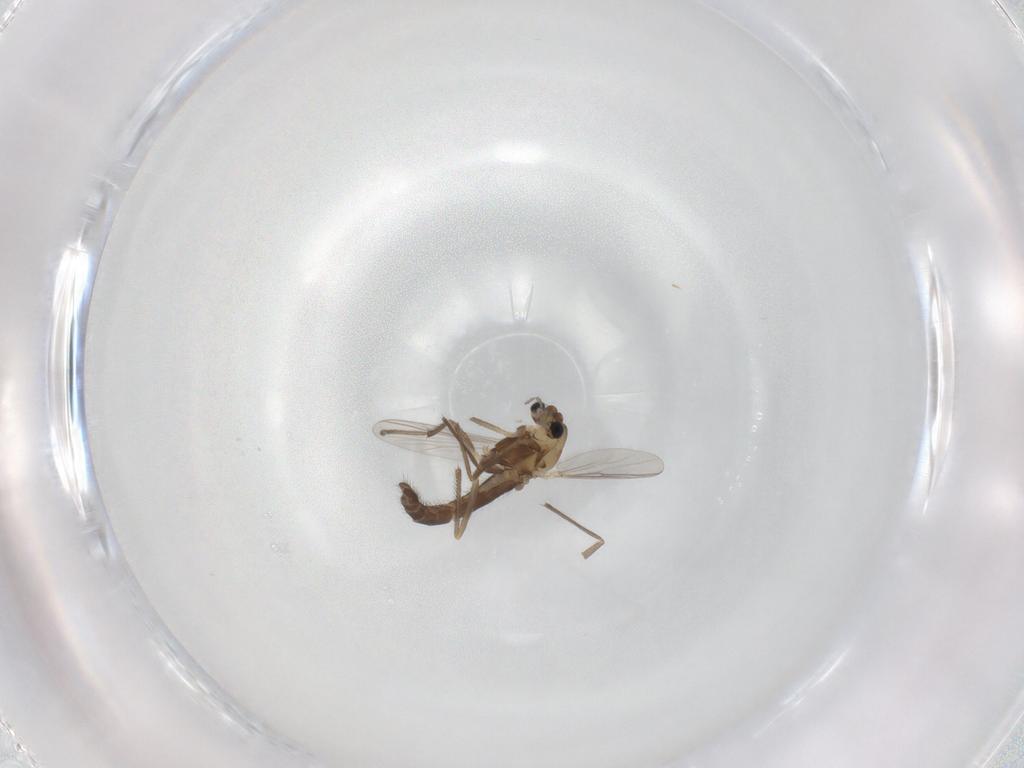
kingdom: Animalia
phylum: Arthropoda
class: Insecta
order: Diptera
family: Chironomidae
